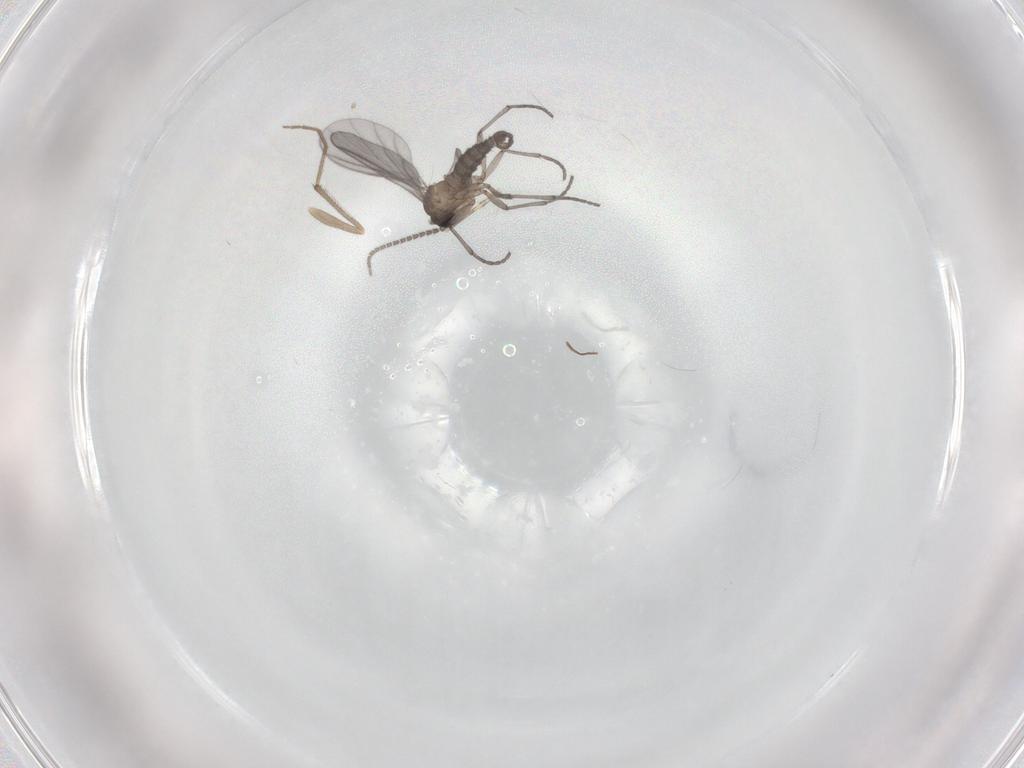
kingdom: Animalia
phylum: Arthropoda
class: Insecta
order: Diptera
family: Sciaridae
